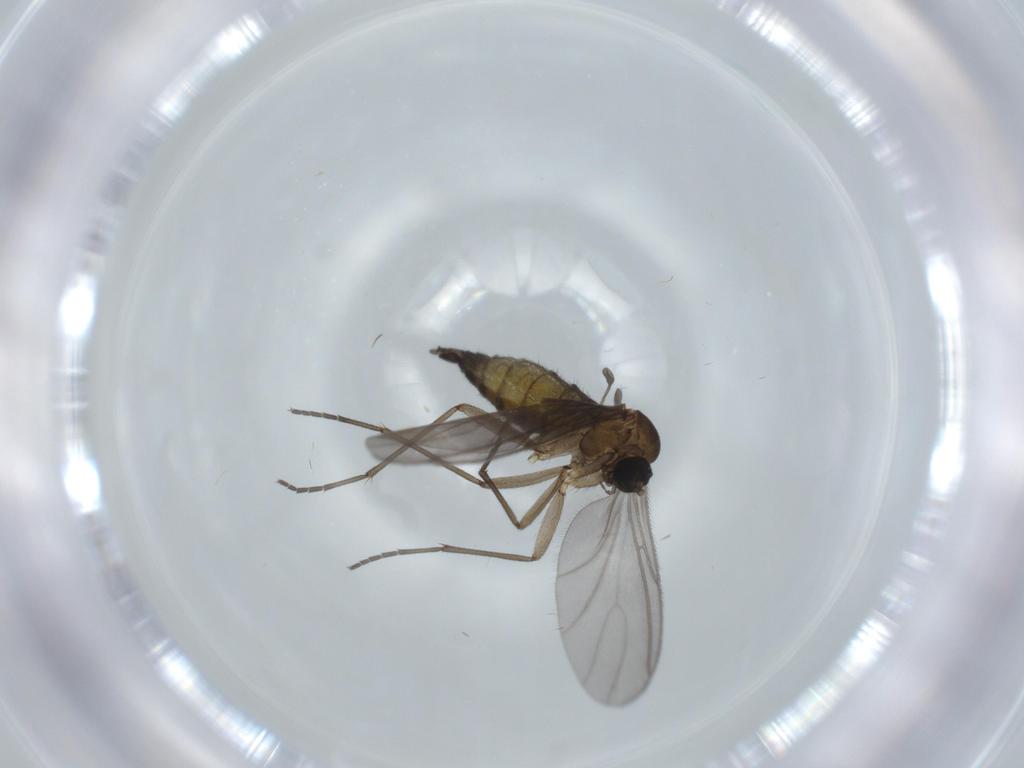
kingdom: Animalia
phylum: Arthropoda
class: Insecta
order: Diptera
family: Sciaridae
